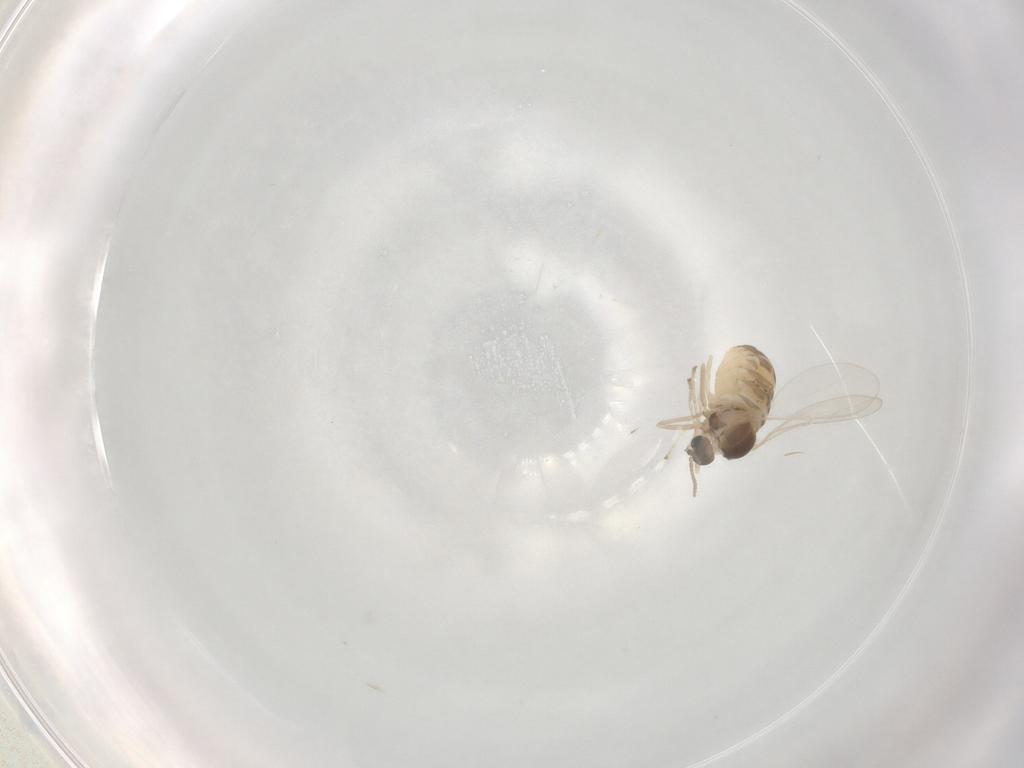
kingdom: Animalia
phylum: Arthropoda
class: Insecta
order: Diptera
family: Cecidomyiidae
